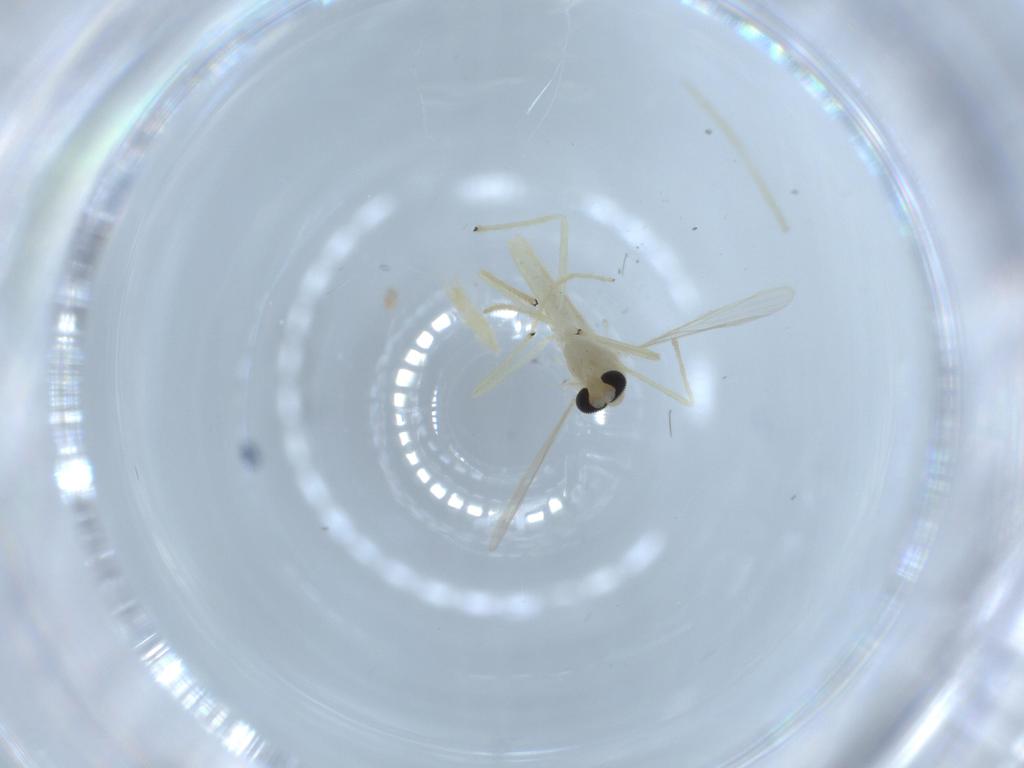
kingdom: Animalia
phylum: Arthropoda
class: Insecta
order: Diptera
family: Chironomidae
